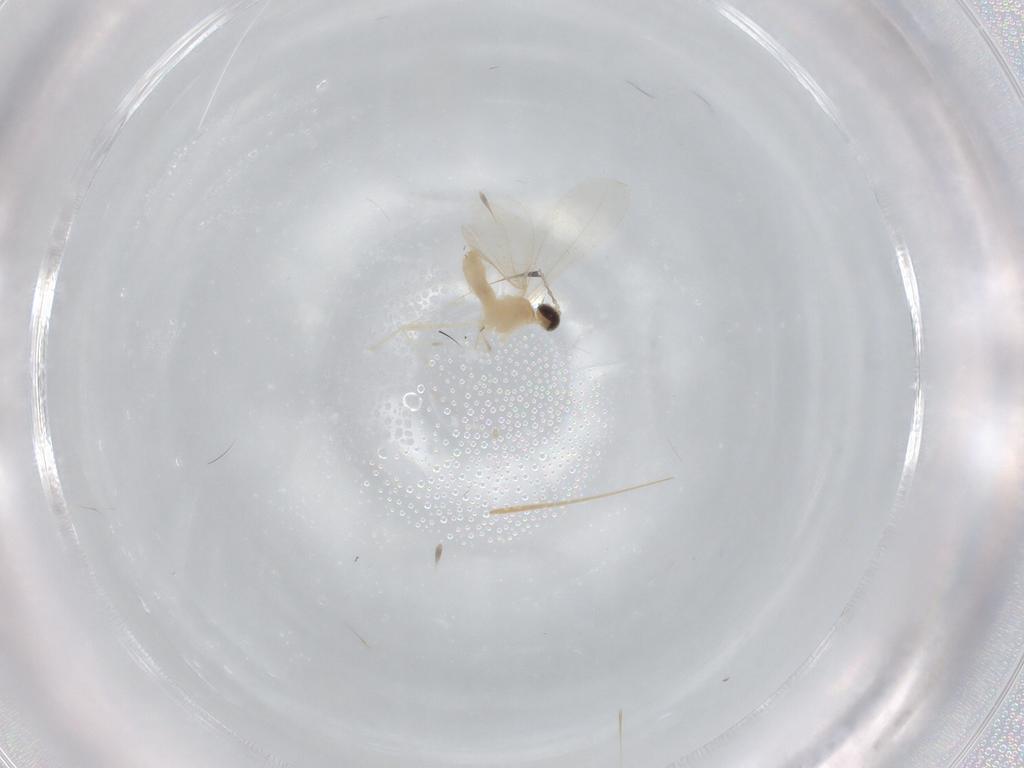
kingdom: Animalia
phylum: Arthropoda
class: Insecta
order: Diptera
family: Cecidomyiidae
